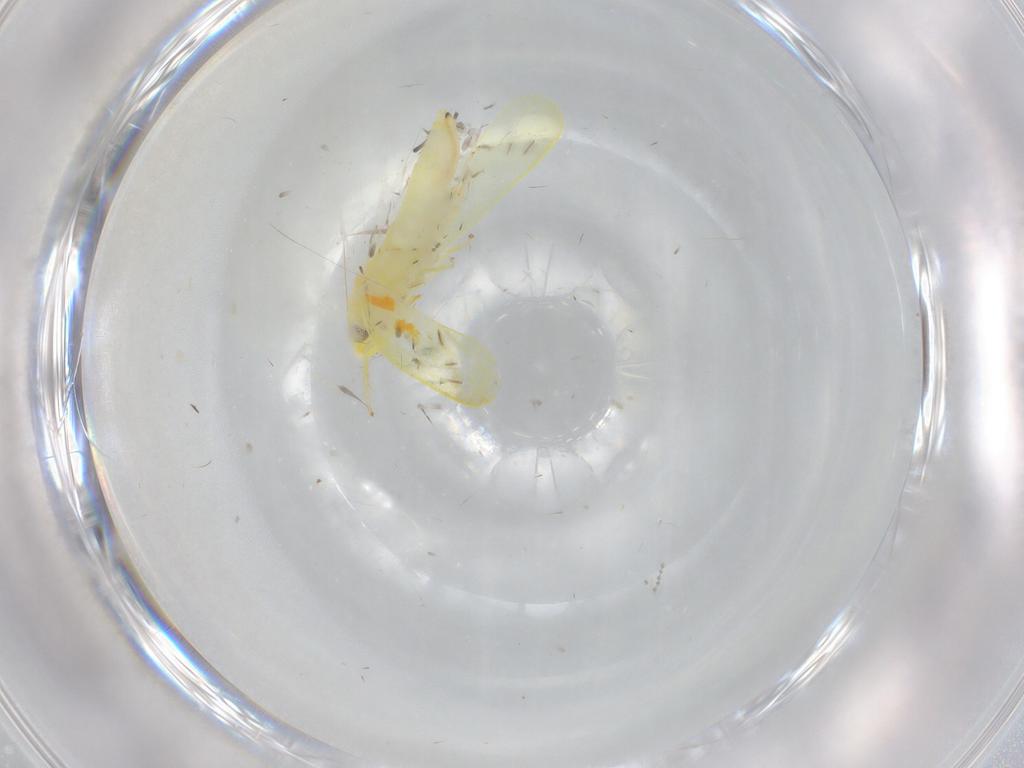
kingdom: Animalia
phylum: Arthropoda
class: Insecta
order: Hemiptera
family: Cicadellidae
